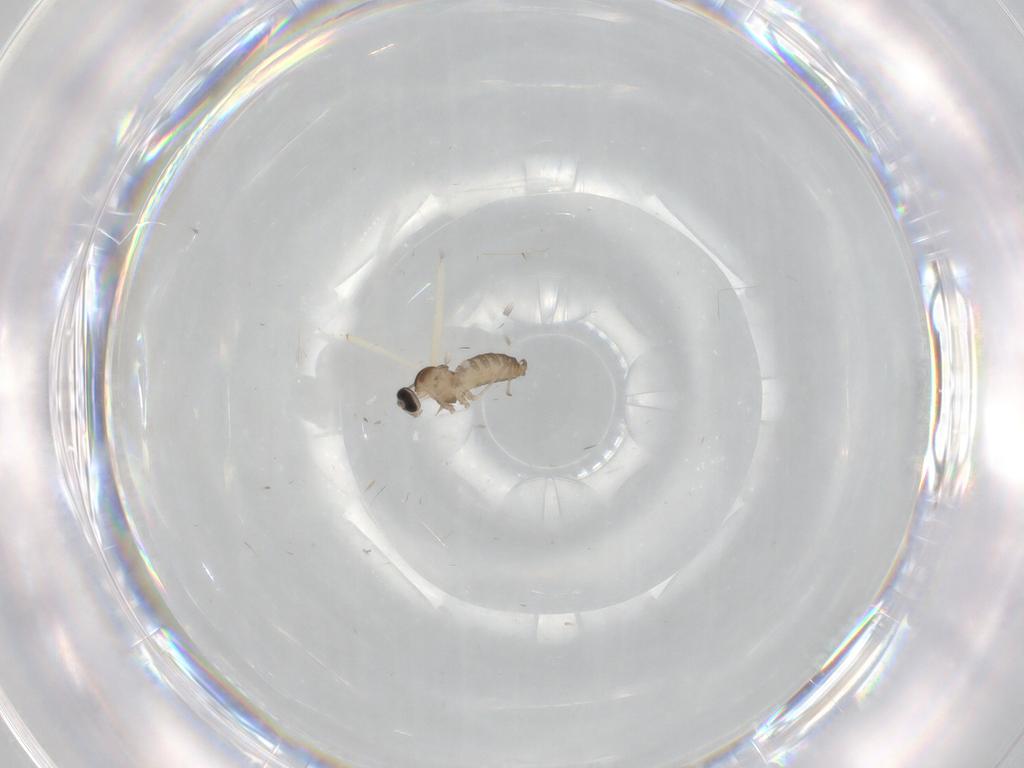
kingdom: Animalia
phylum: Arthropoda
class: Insecta
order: Diptera
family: Cecidomyiidae
